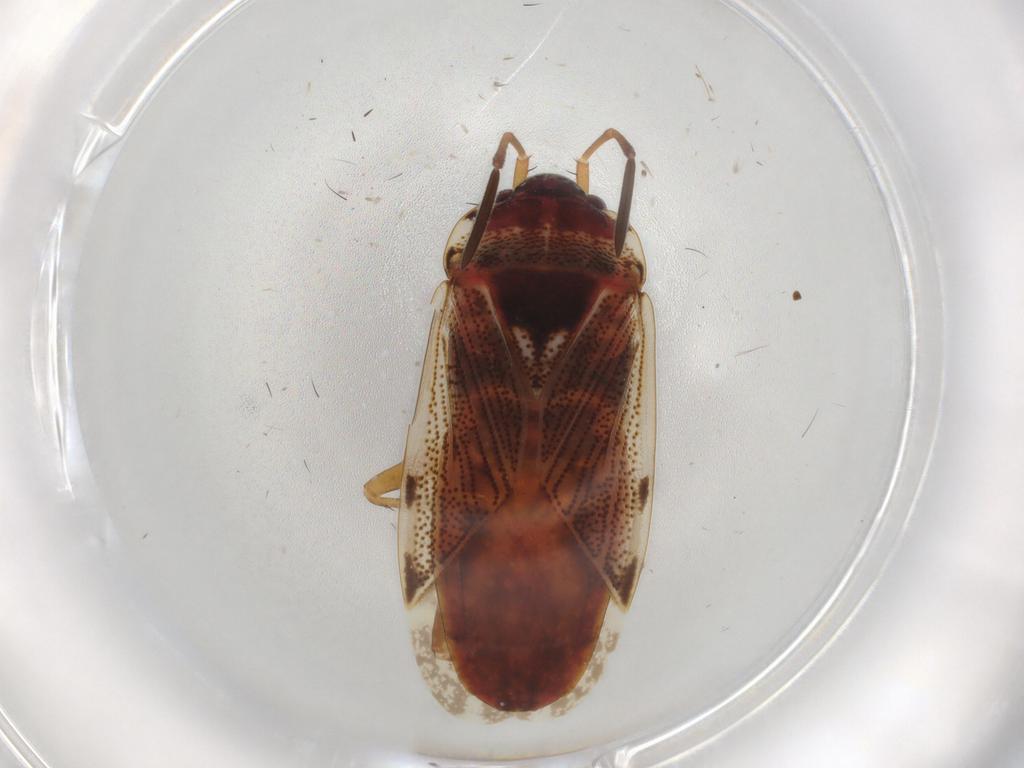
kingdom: Animalia
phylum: Arthropoda
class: Insecta
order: Hemiptera
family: Rhyparochromidae
